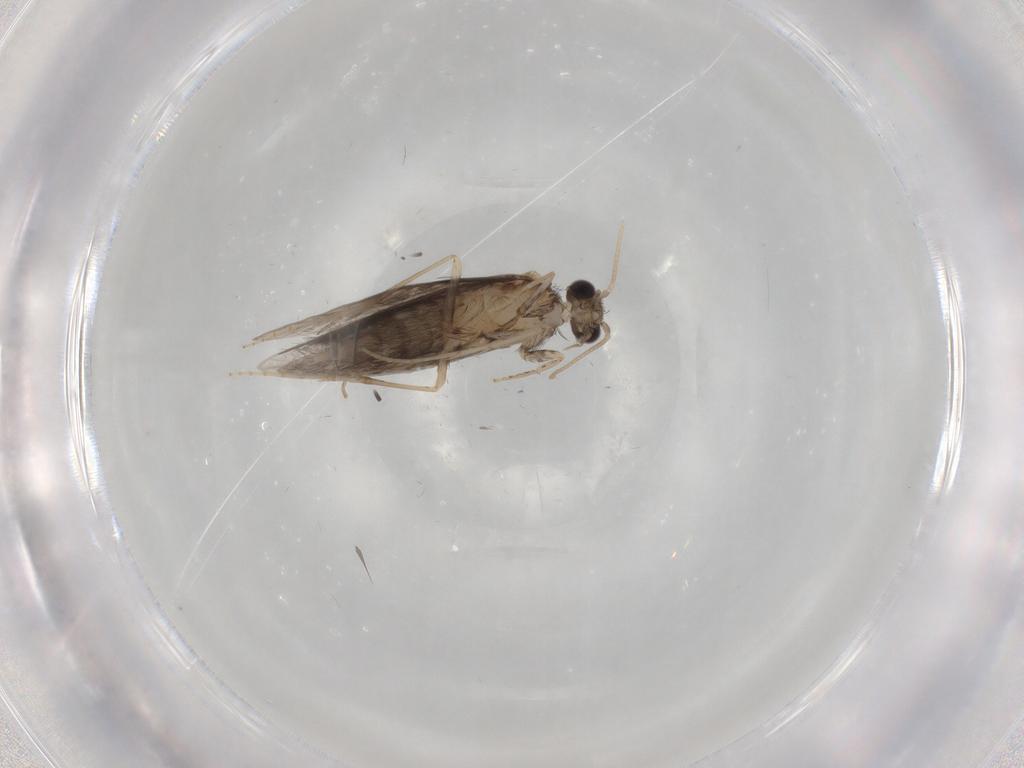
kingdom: Animalia
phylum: Arthropoda
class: Insecta
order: Trichoptera
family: Hydroptilidae
